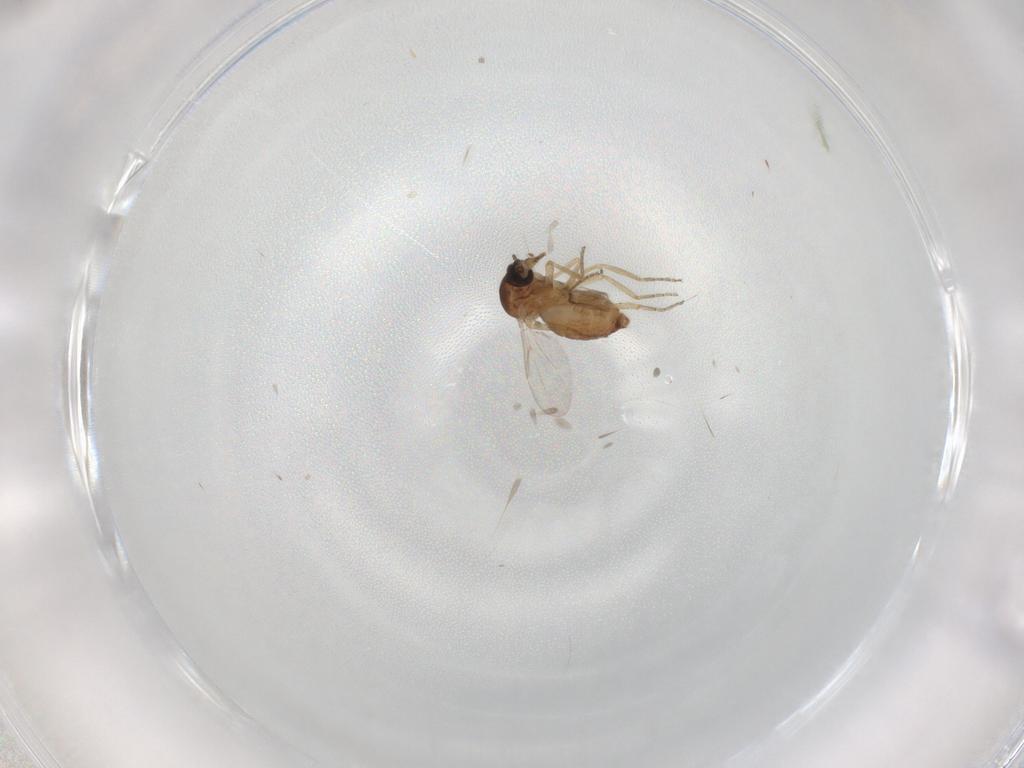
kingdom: Animalia
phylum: Arthropoda
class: Insecta
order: Diptera
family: Ceratopogonidae
